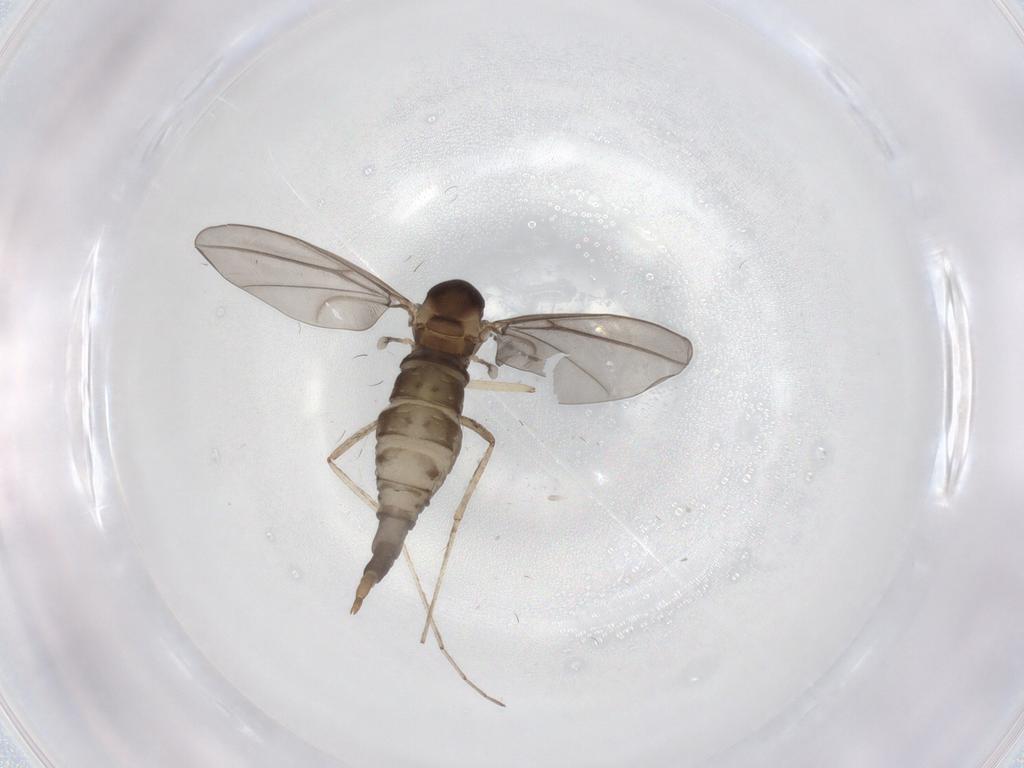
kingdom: Animalia
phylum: Arthropoda
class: Insecta
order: Diptera
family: Cecidomyiidae
